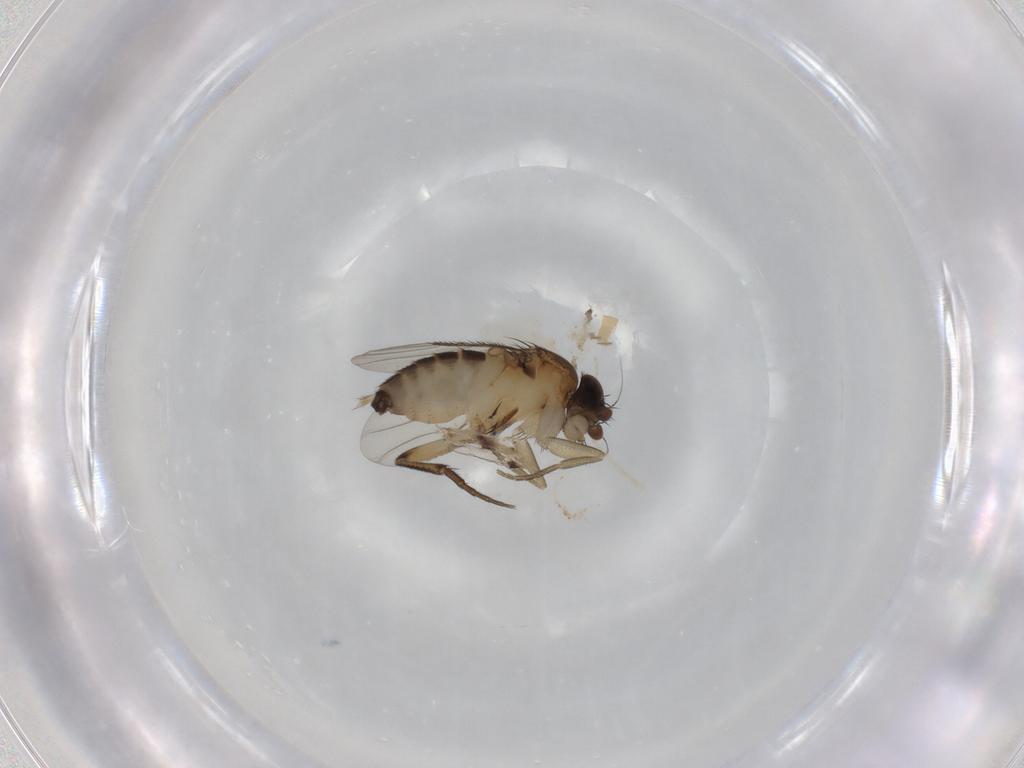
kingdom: Animalia
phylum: Arthropoda
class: Insecta
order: Diptera
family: Phoridae
